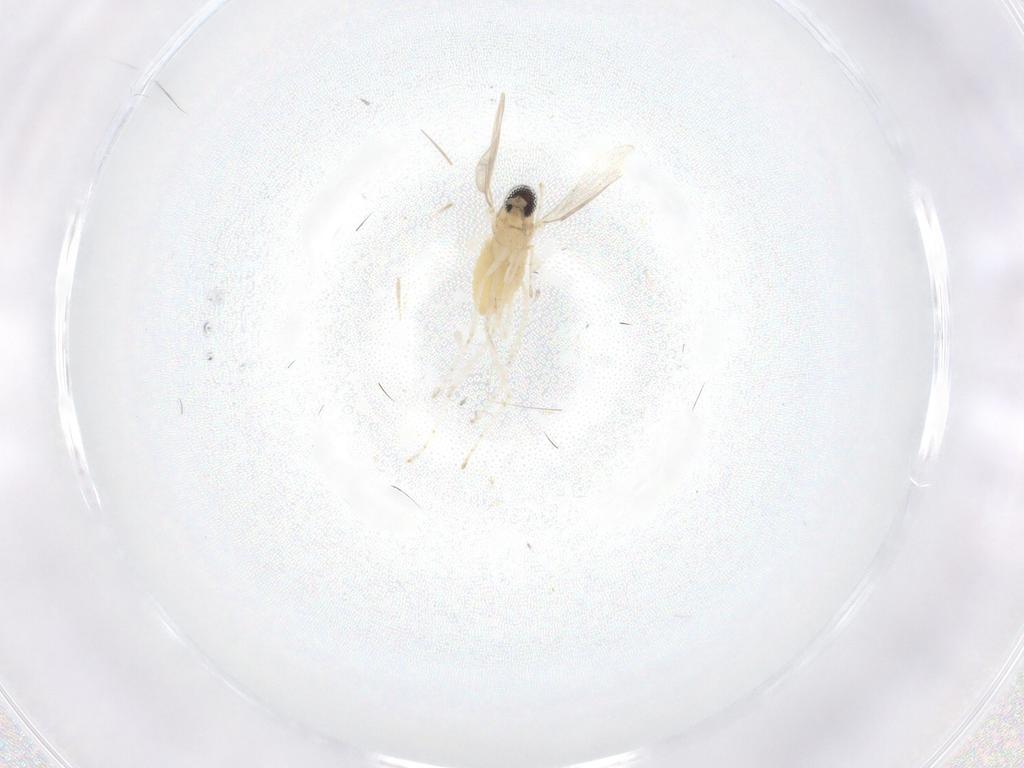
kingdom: Animalia
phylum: Arthropoda
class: Insecta
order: Diptera
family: Cecidomyiidae
